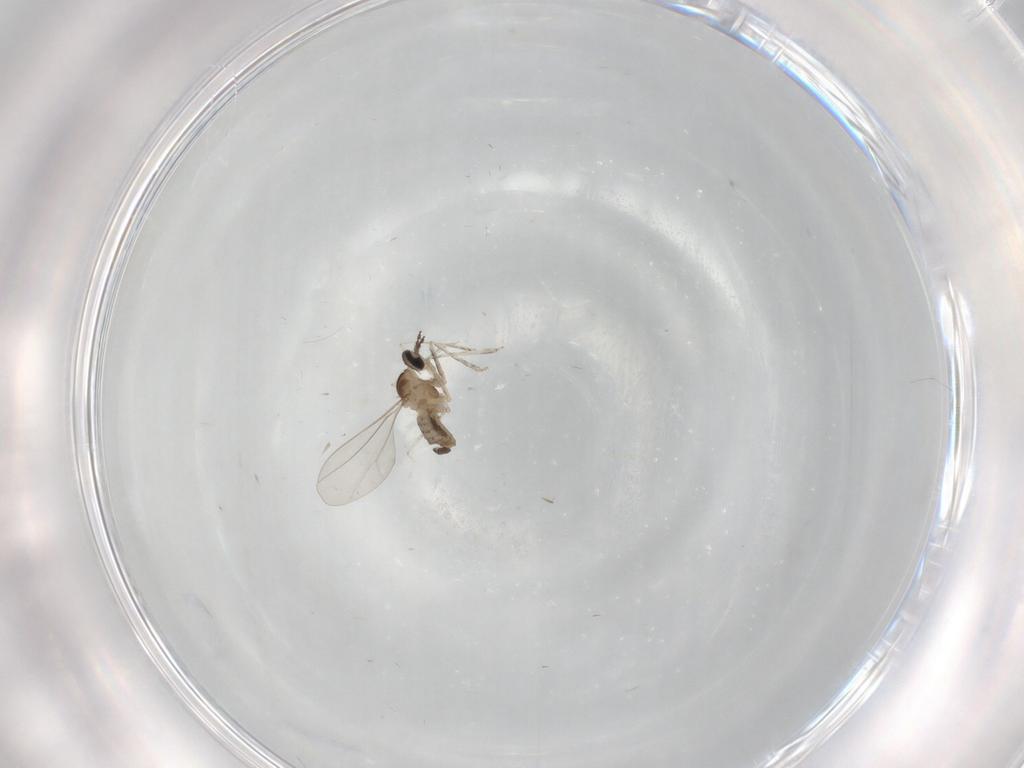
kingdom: Animalia
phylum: Arthropoda
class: Insecta
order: Diptera
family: Cecidomyiidae
